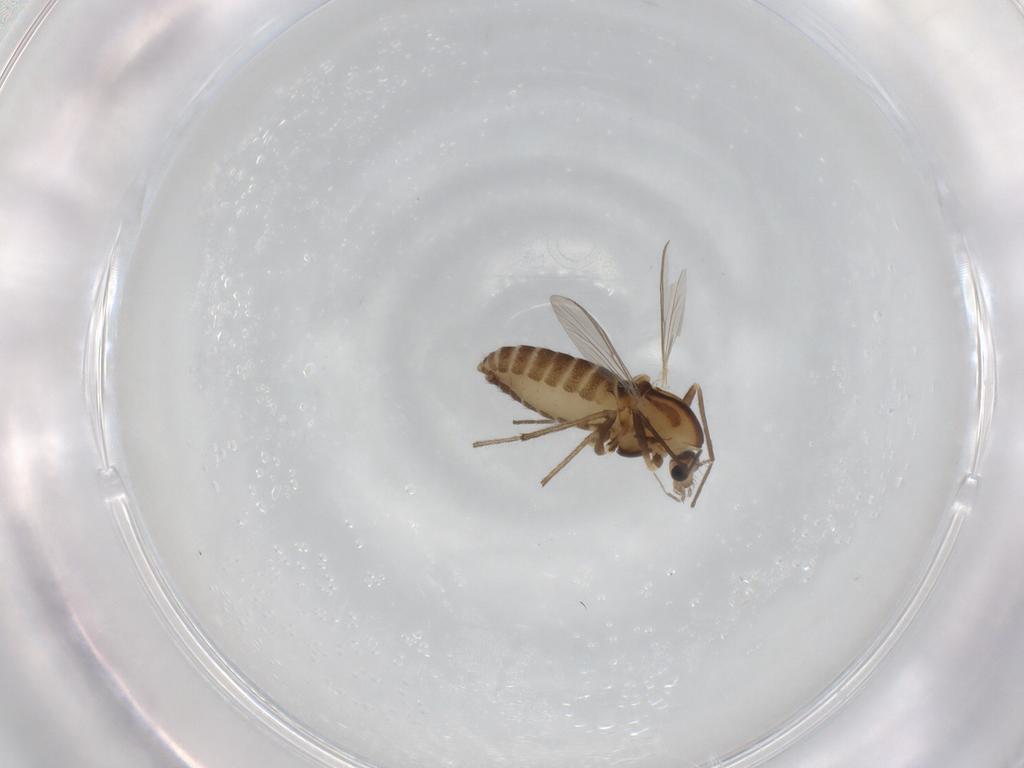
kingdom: Animalia
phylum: Arthropoda
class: Insecta
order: Diptera
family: Chironomidae
